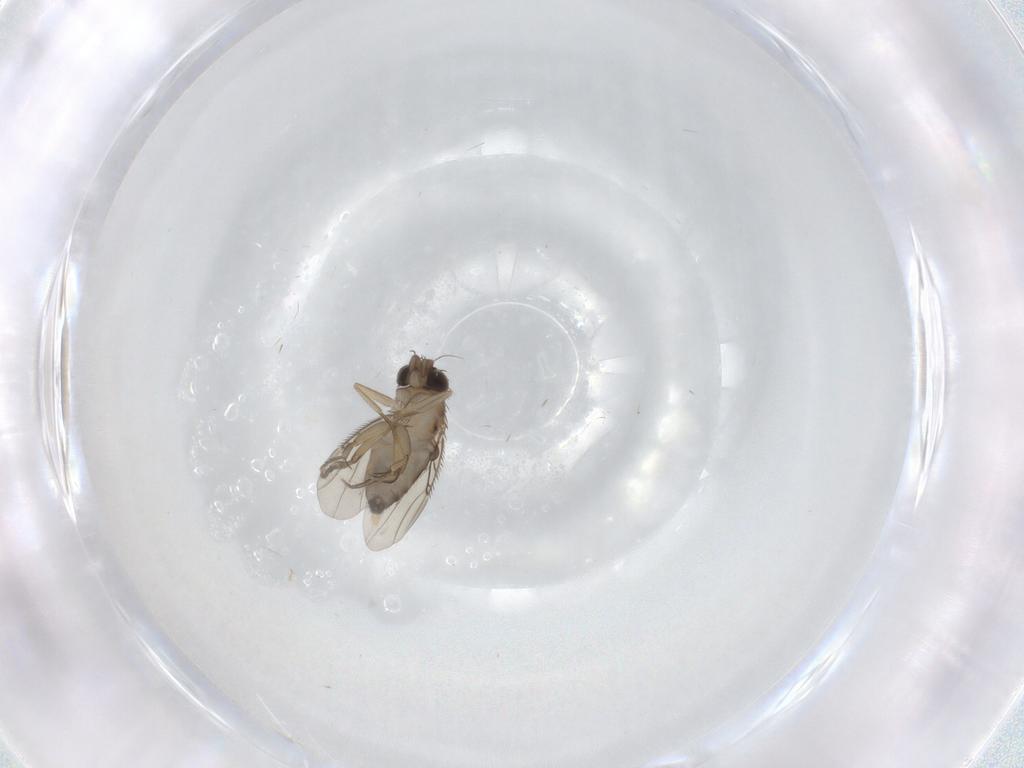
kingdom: Animalia
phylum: Arthropoda
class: Insecta
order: Diptera
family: Phoridae
